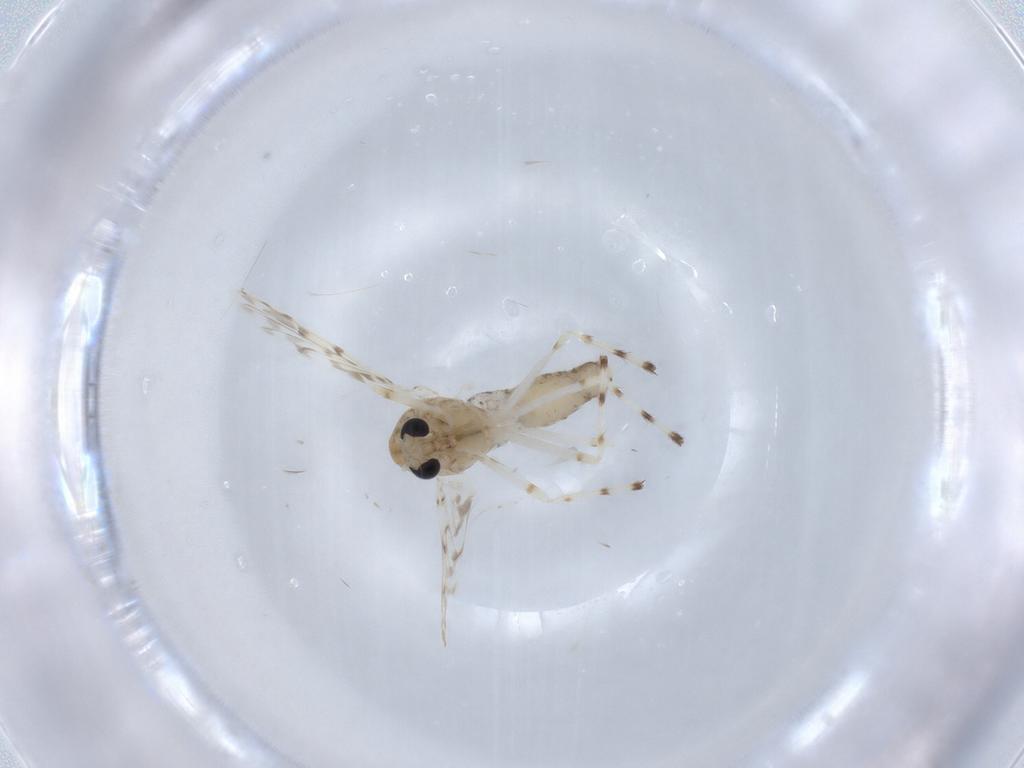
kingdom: Animalia
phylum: Arthropoda
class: Insecta
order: Diptera
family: Chironomidae
